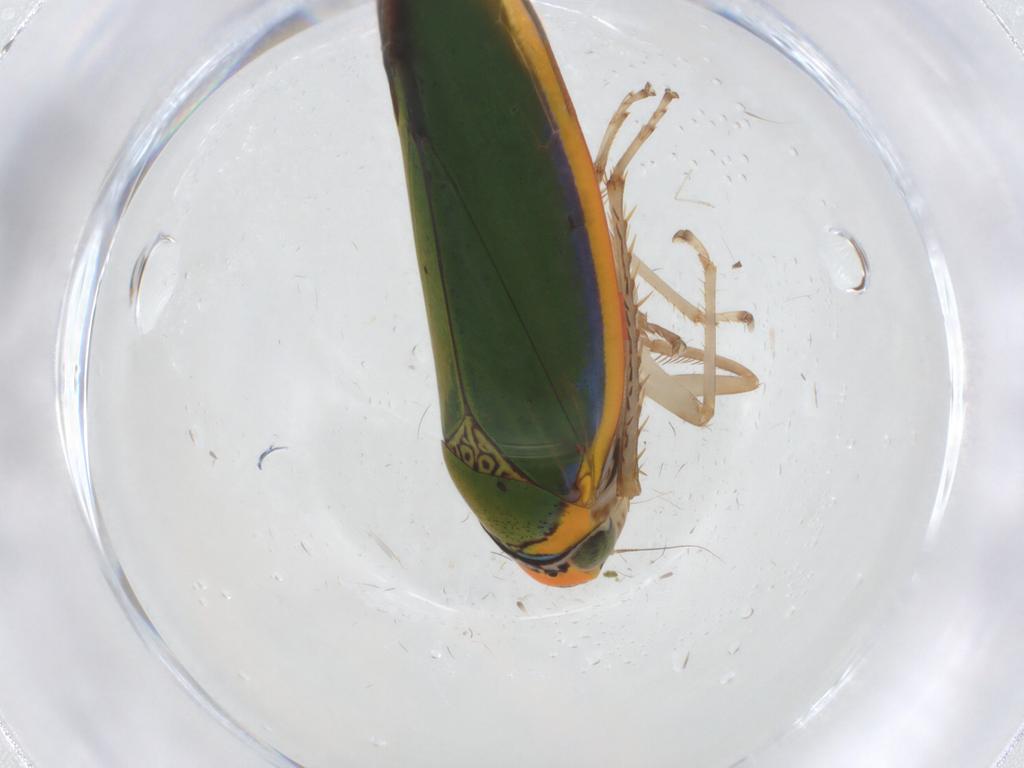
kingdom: Animalia
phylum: Arthropoda
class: Insecta
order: Hemiptera
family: Cicadellidae
